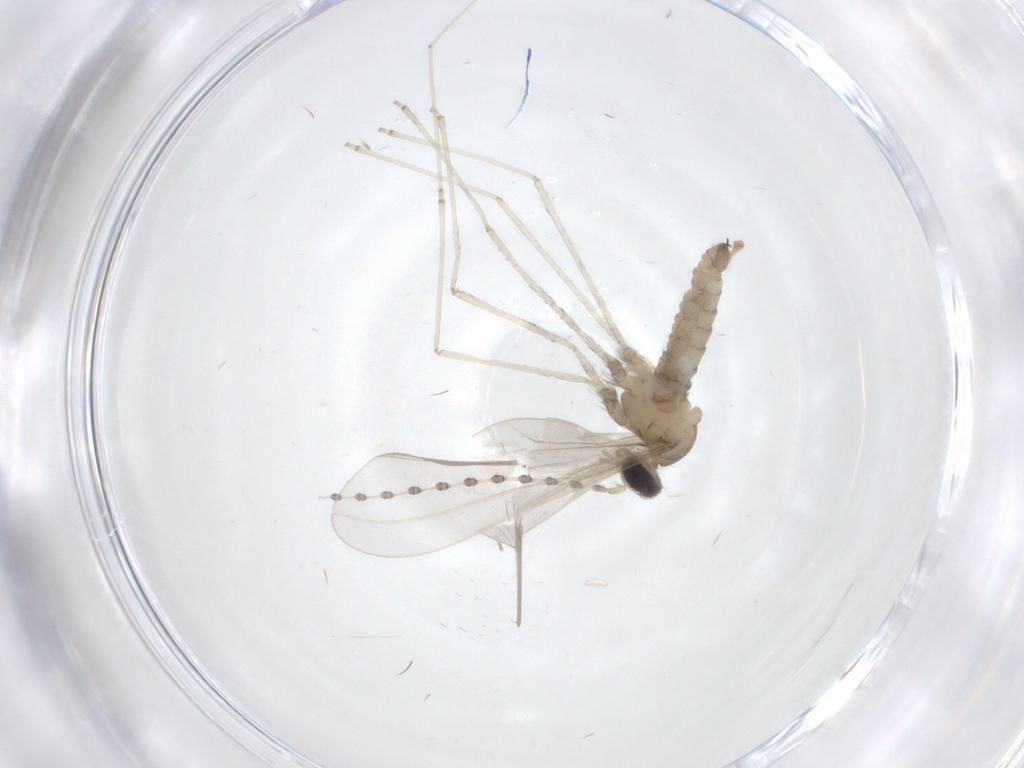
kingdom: Animalia
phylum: Arthropoda
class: Insecta
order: Diptera
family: Cecidomyiidae
